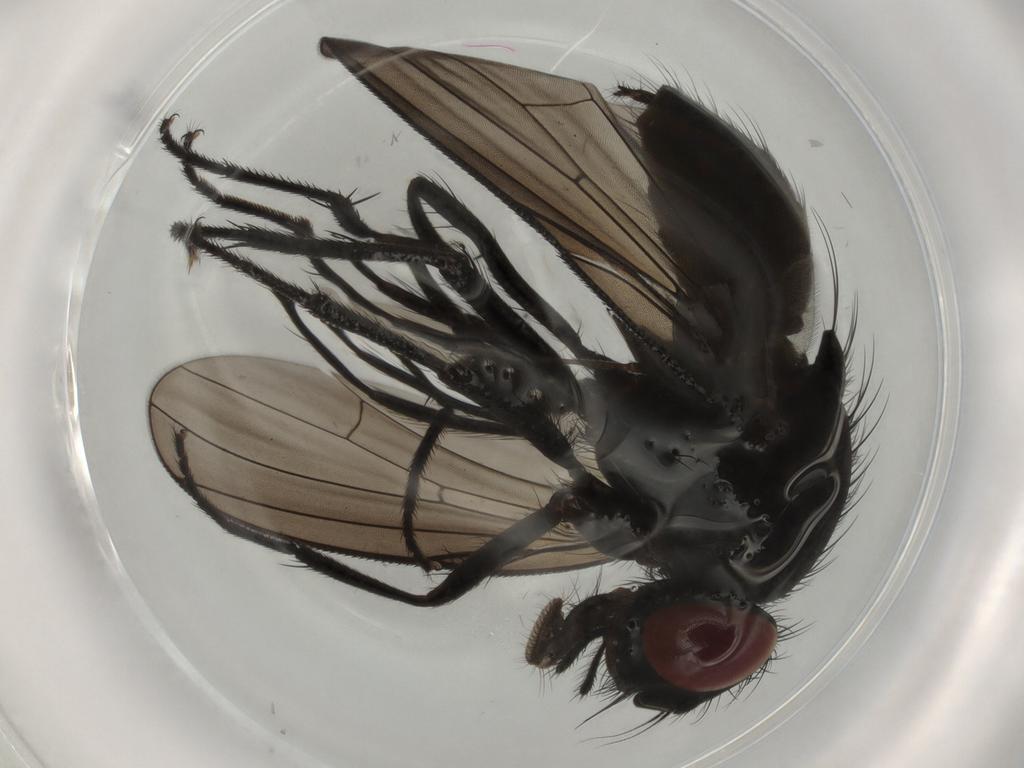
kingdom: Animalia
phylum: Arthropoda
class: Insecta
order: Diptera
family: Muscidae
